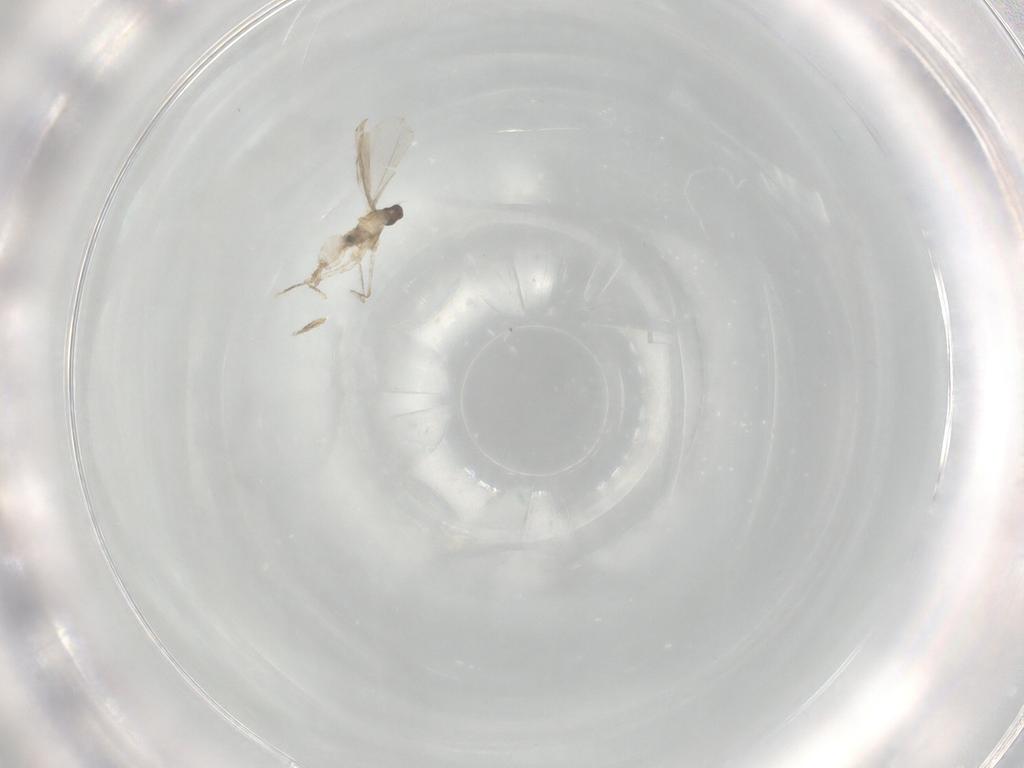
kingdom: Animalia
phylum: Arthropoda
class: Insecta
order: Diptera
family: Cecidomyiidae
